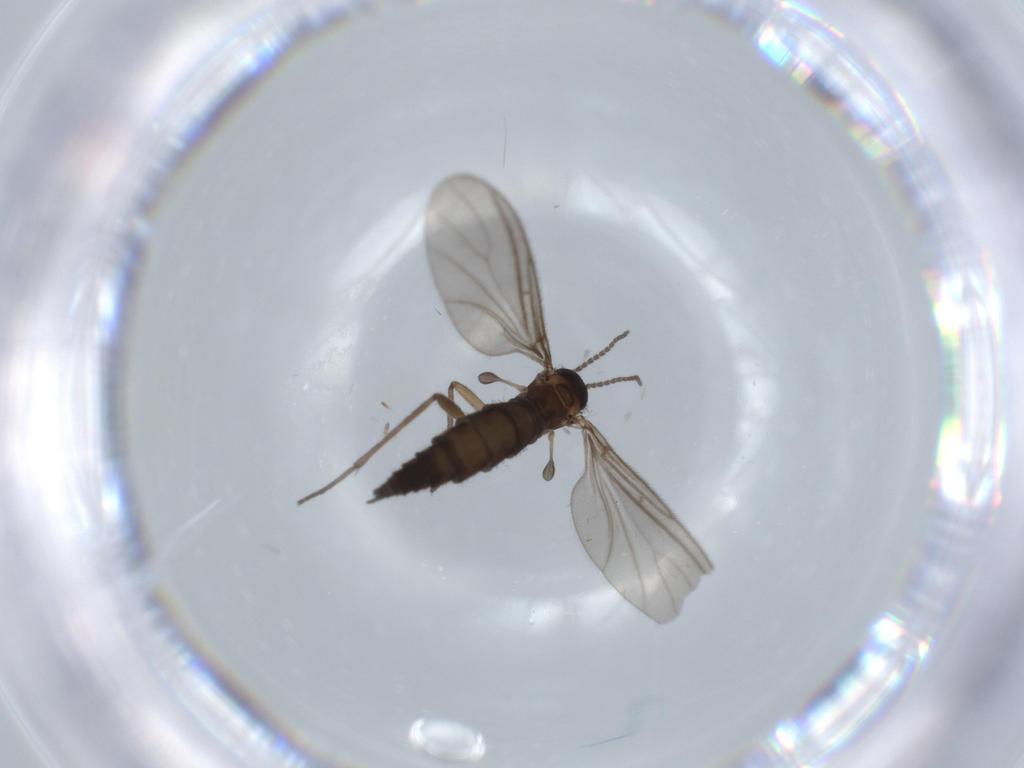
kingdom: Animalia
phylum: Arthropoda
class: Insecta
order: Diptera
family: Sciaridae
